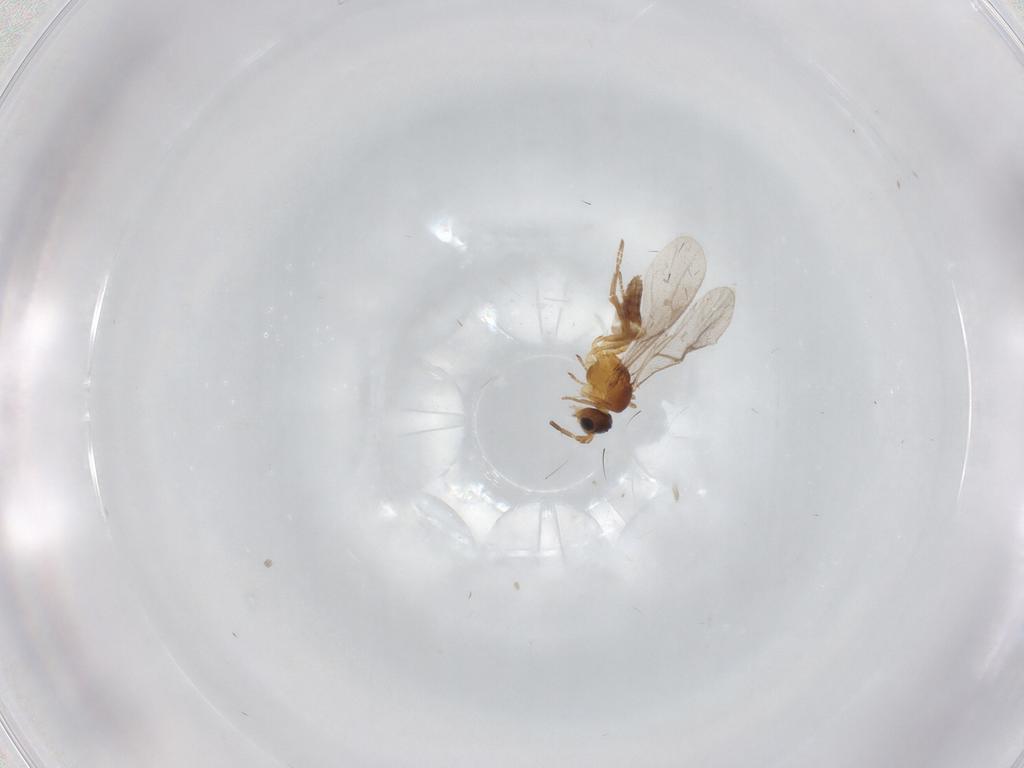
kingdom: Animalia
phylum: Arthropoda
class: Insecta
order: Hymenoptera
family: Braconidae
